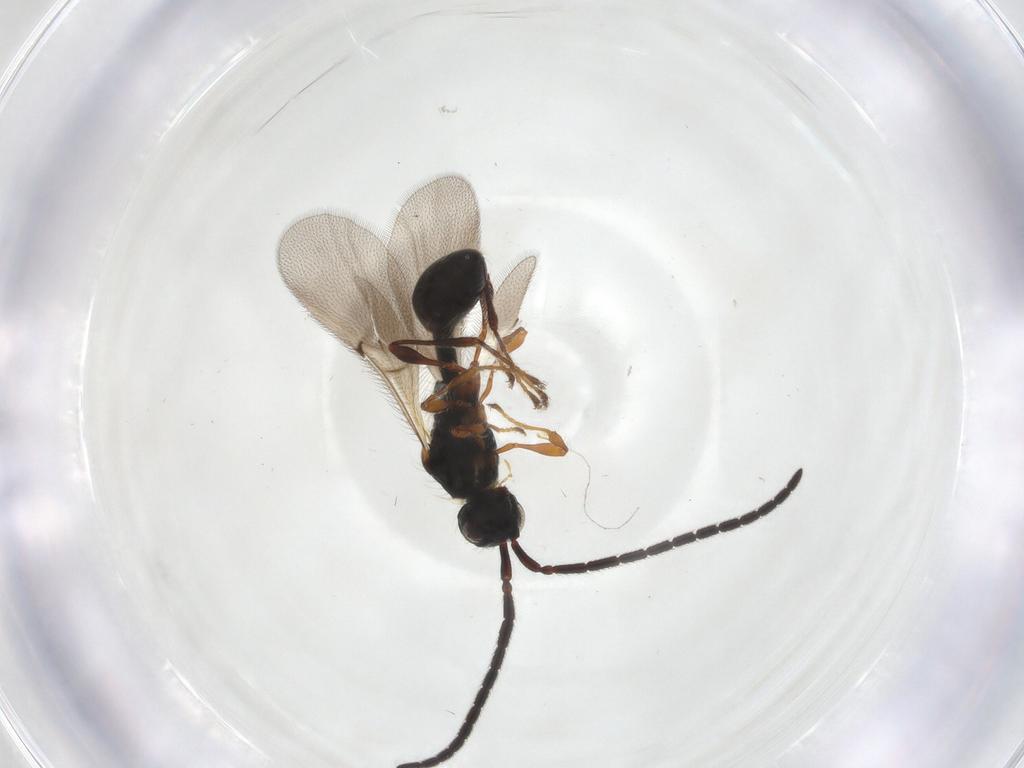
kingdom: Animalia
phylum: Arthropoda
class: Insecta
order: Hymenoptera
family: Diapriidae
